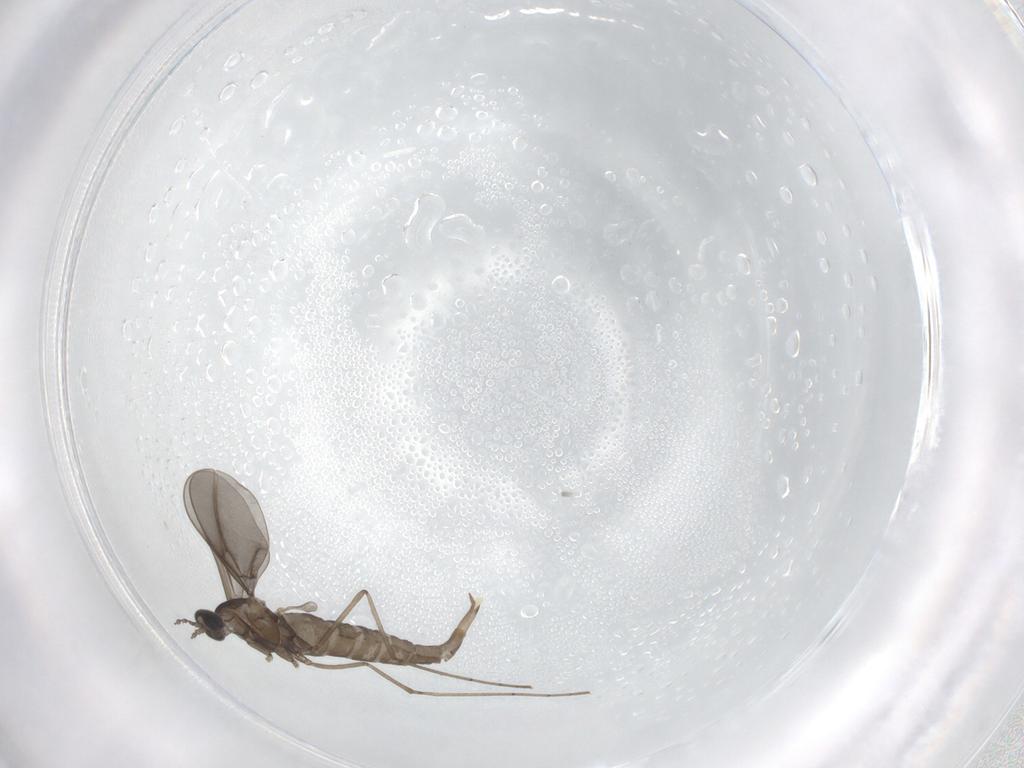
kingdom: Animalia
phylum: Arthropoda
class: Insecta
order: Diptera
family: Cecidomyiidae
